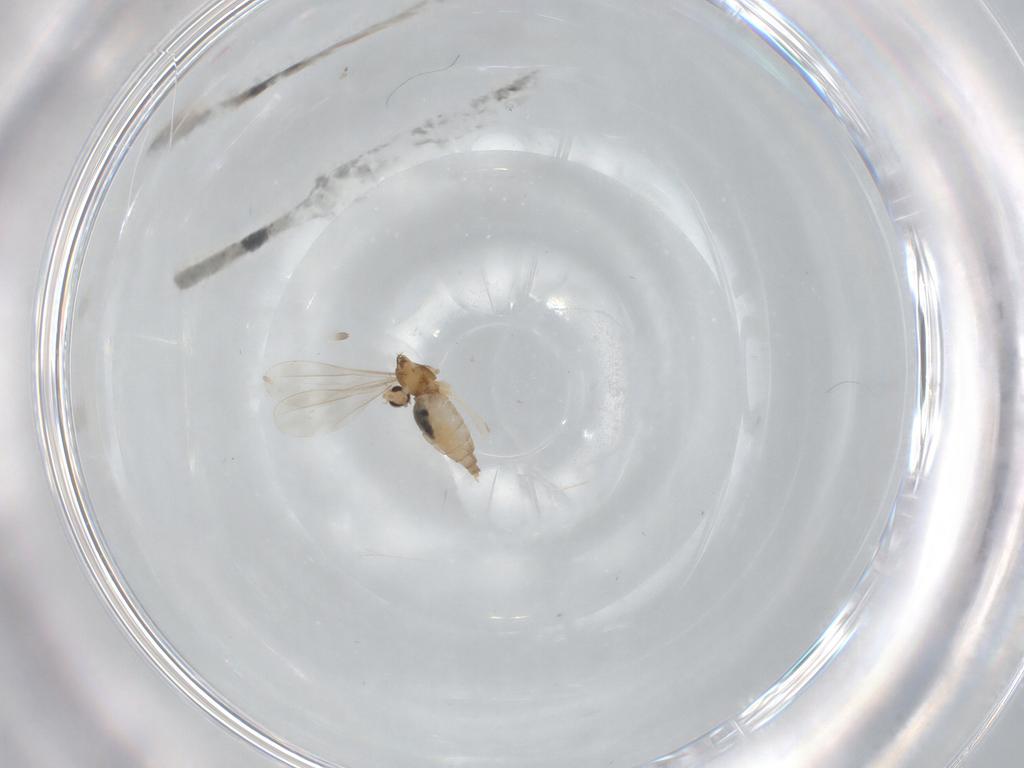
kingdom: Animalia
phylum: Arthropoda
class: Insecta
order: Diptera
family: Cecidomyiidae
